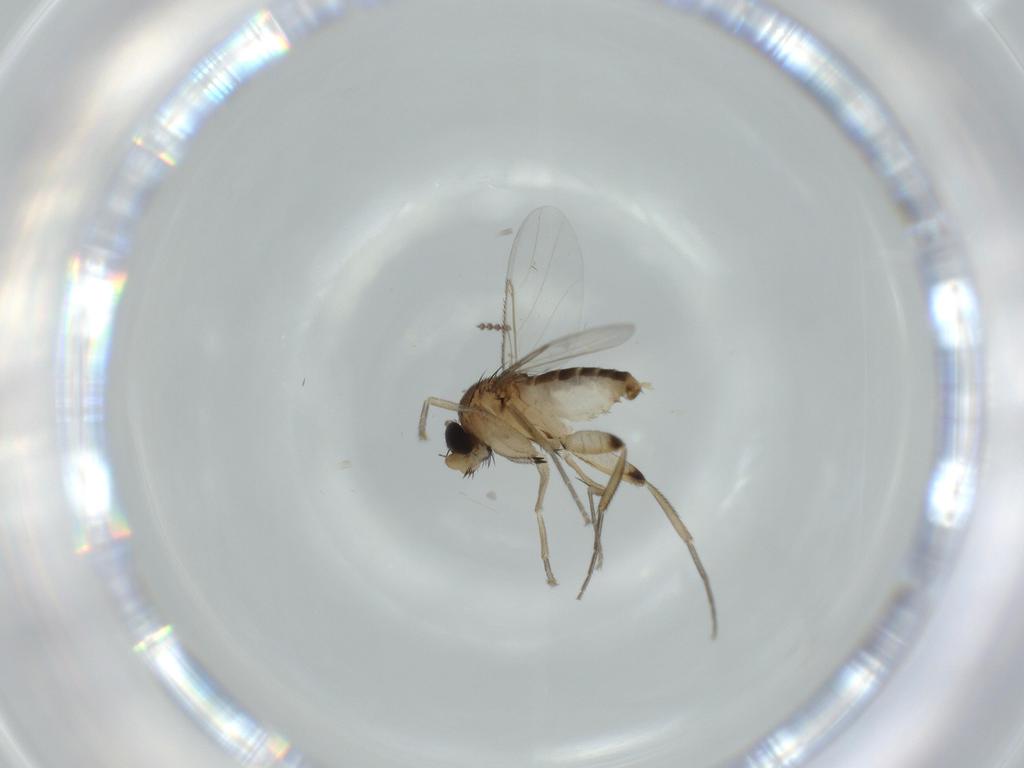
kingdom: Animalia
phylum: Arthropoda
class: Insecta
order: Diptera
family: Phoridae
